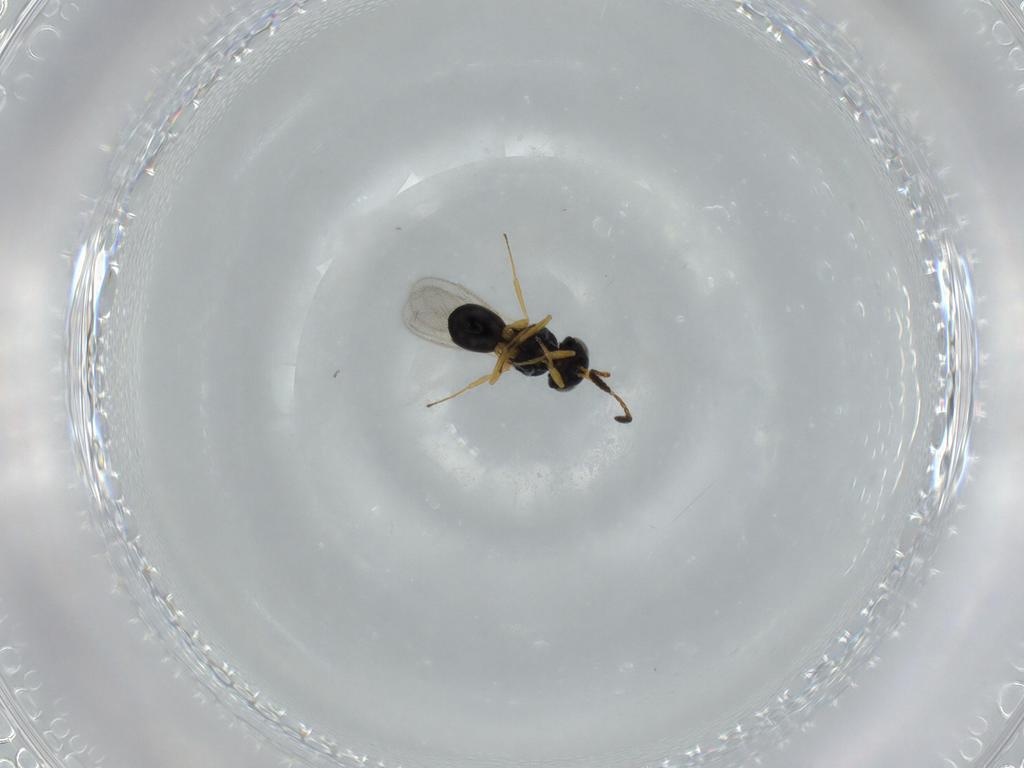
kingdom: Animalia
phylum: Arthropoda
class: Insecta
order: Hymenoptera
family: Scelionidae
